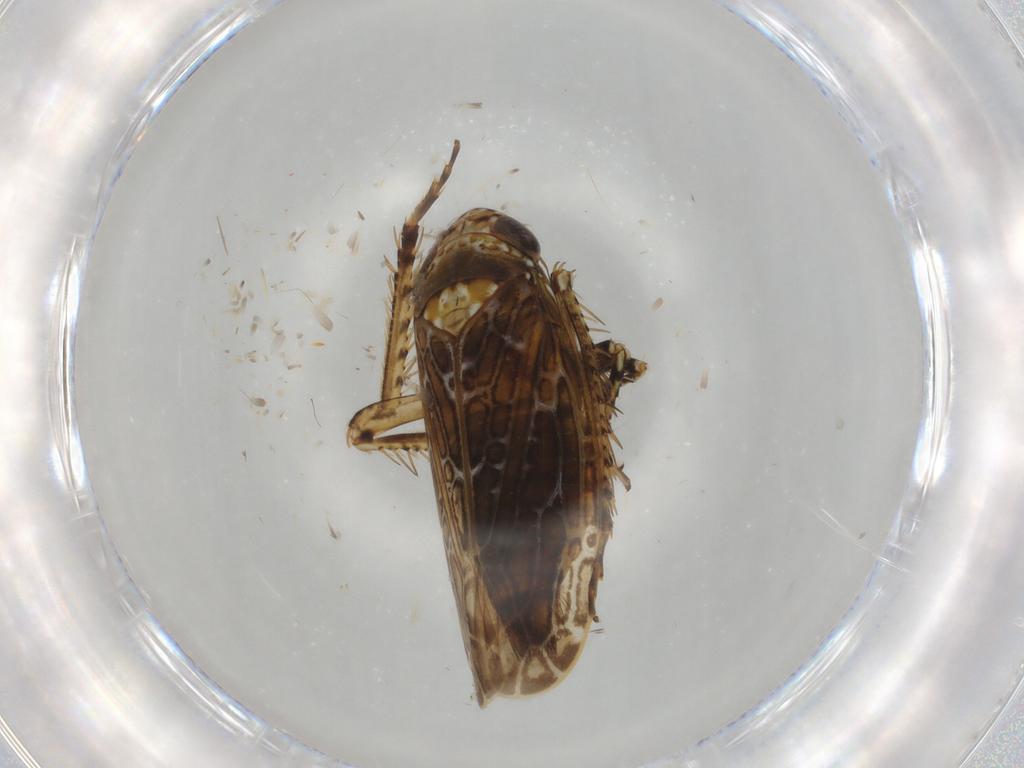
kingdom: Animalia
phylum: Arthropoda
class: Insecta
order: Hemiptera
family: Cicadellidae
